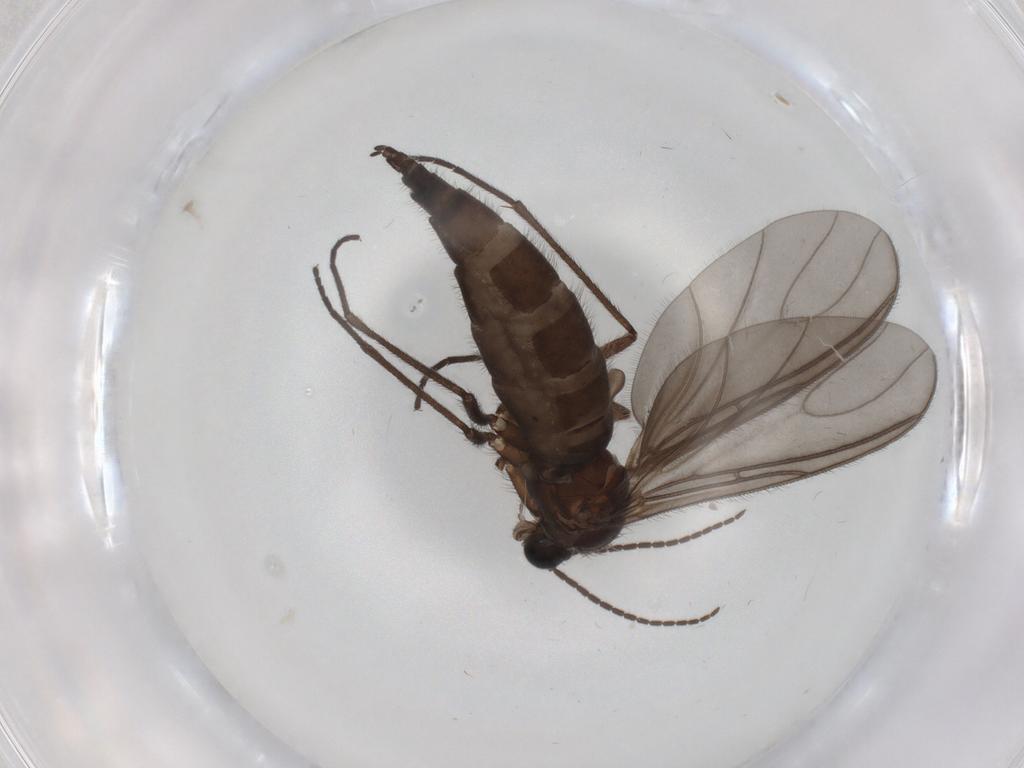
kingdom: Animalia
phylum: Arthropoda
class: Insecta
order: Diptera
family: Sciaridae
